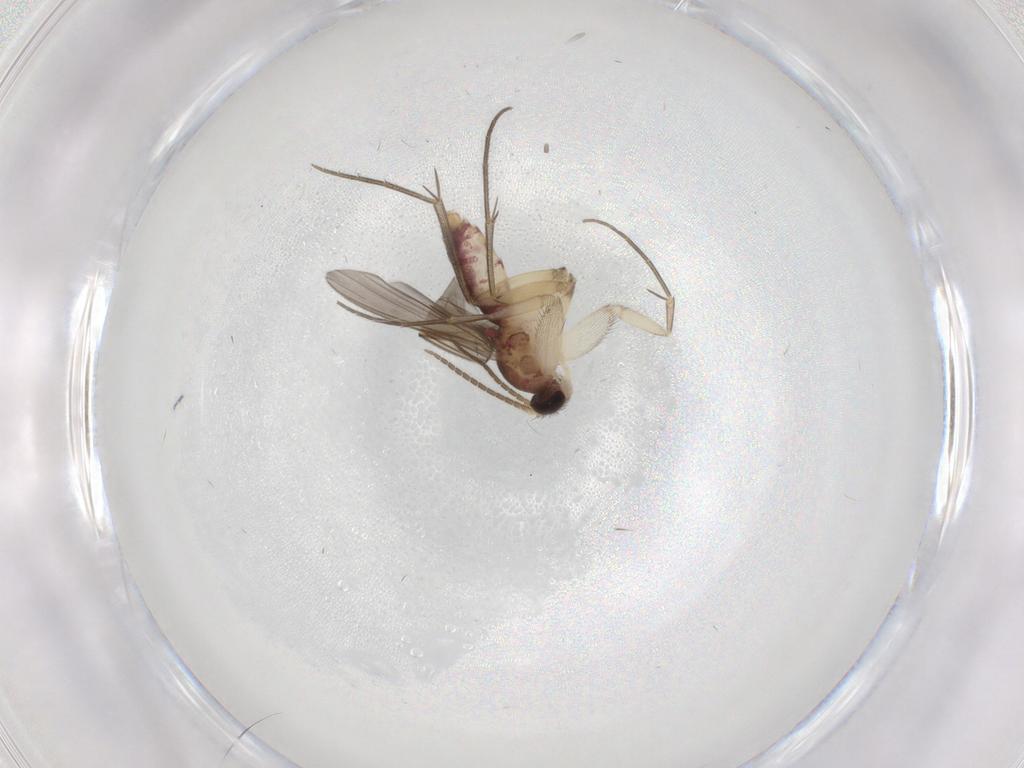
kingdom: Animalia
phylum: Arthropoda
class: Insecta
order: Diptera
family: Mycetophilidae
